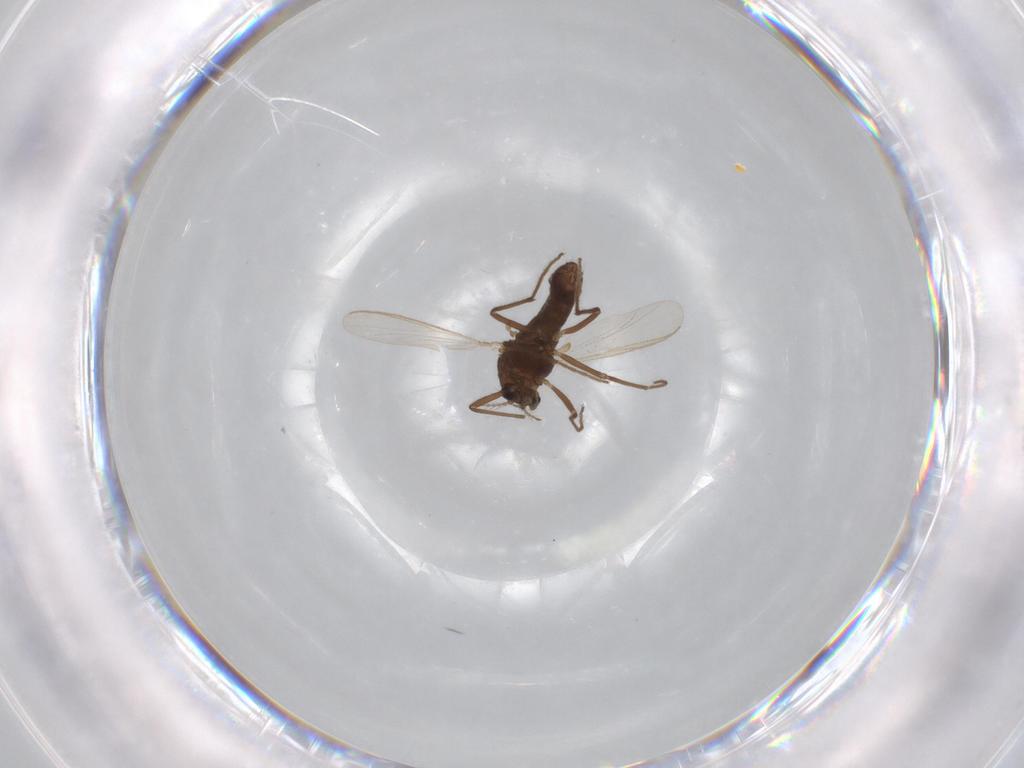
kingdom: Animalia
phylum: Arthropoda
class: Insecta
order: Diptera
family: Chironomidae
